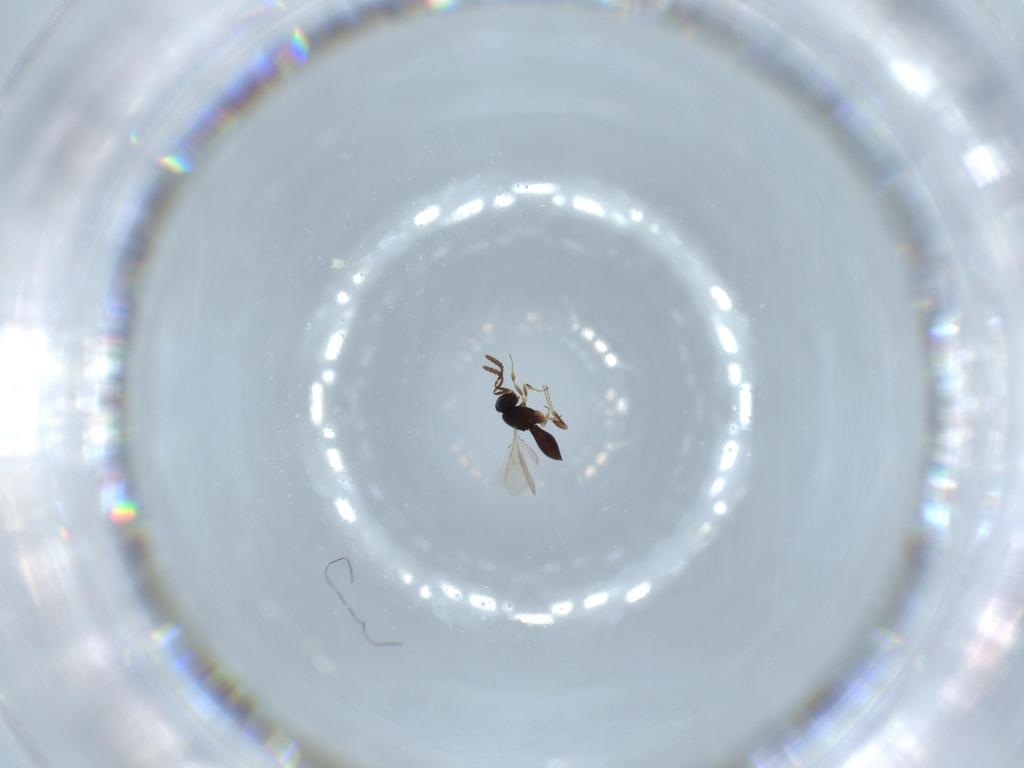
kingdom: Animalia
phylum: Arthropoda
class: Insecta
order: Hymenoptera
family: Scelionidae
